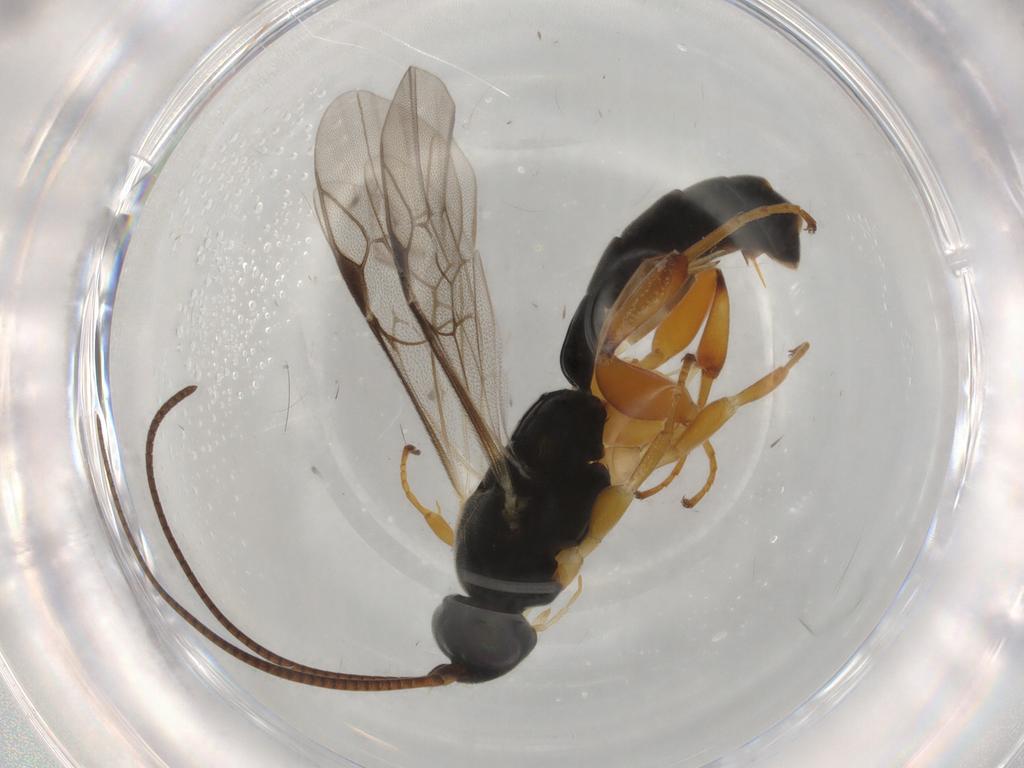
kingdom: Animalia
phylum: Arthropoda
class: Insecta
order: Hymenoptera
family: Ichneumonidae
